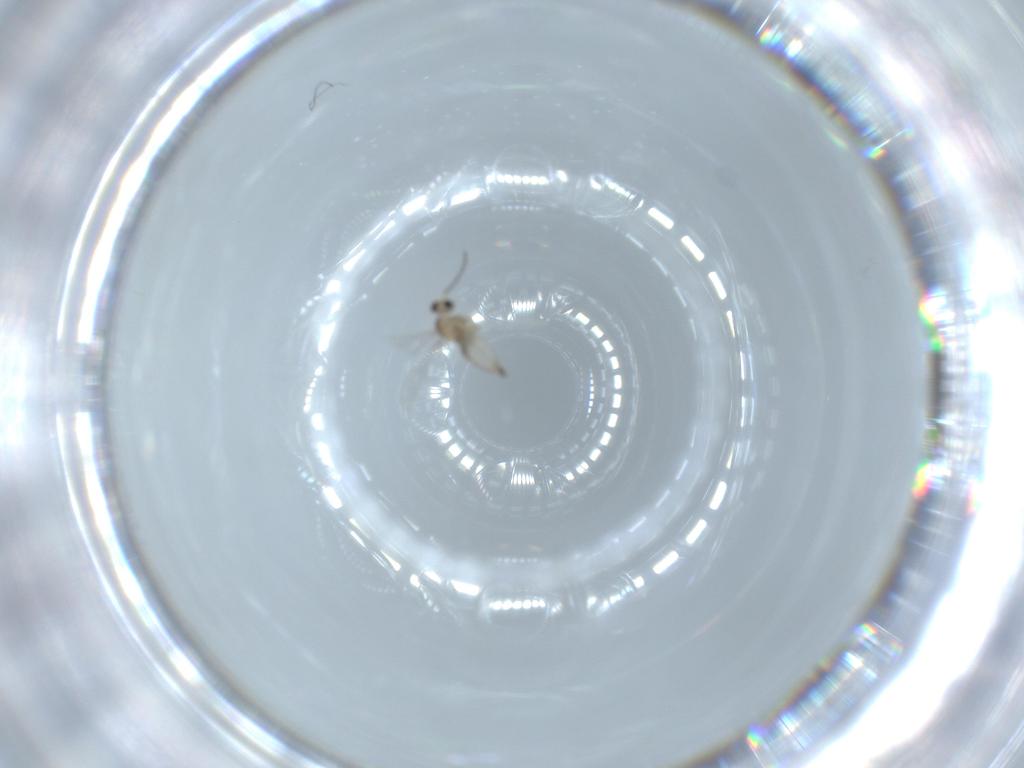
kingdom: Animalia
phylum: Arthropoda
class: Insecta
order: Diptera
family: Cecidomyiidae
